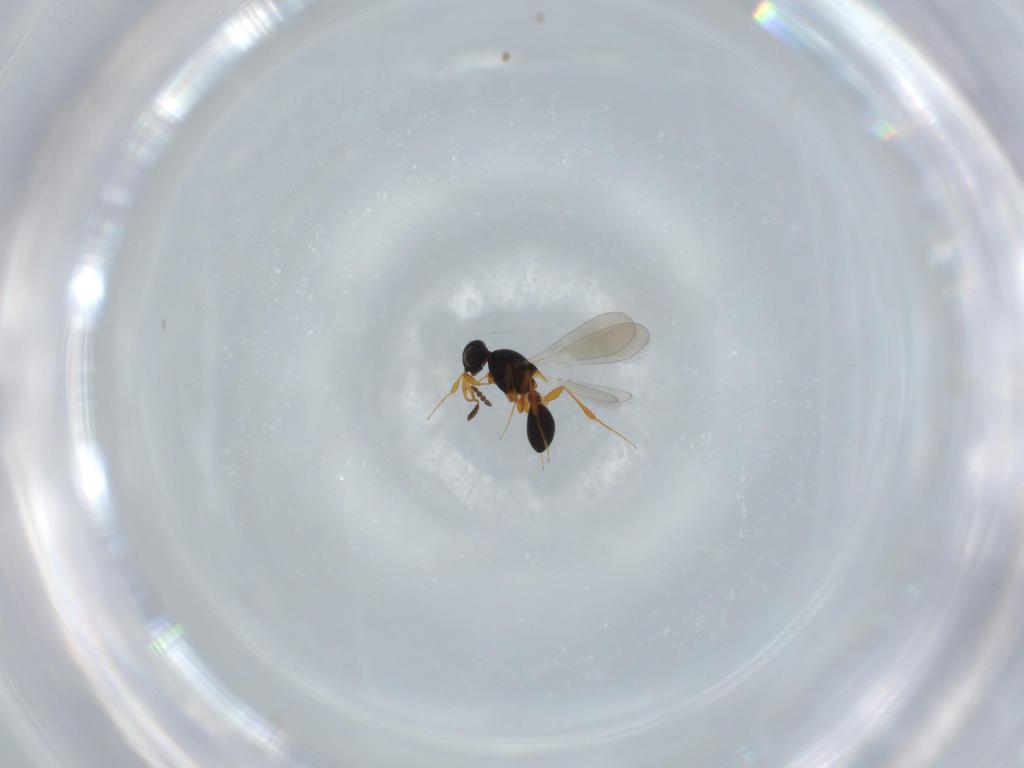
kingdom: Animalia
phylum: Arthropoda
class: Insecta
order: Hymenoptera
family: Platygastridae
